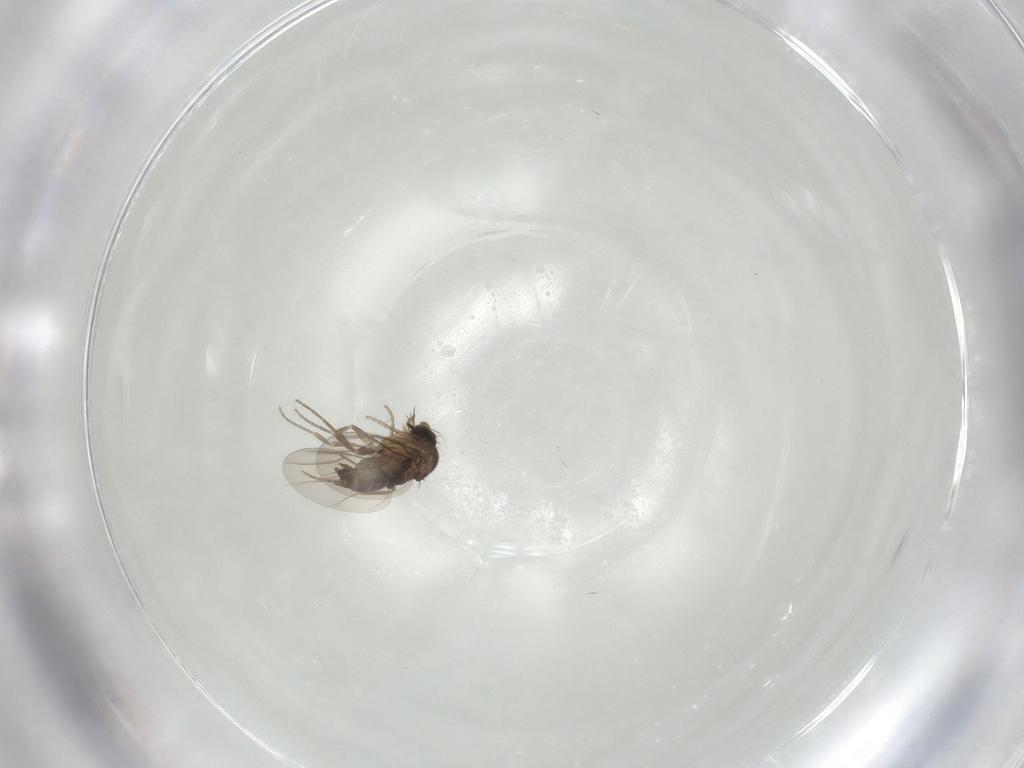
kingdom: Animalia
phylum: Arthropoda
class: Insecta
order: Diptera
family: Phoridae
